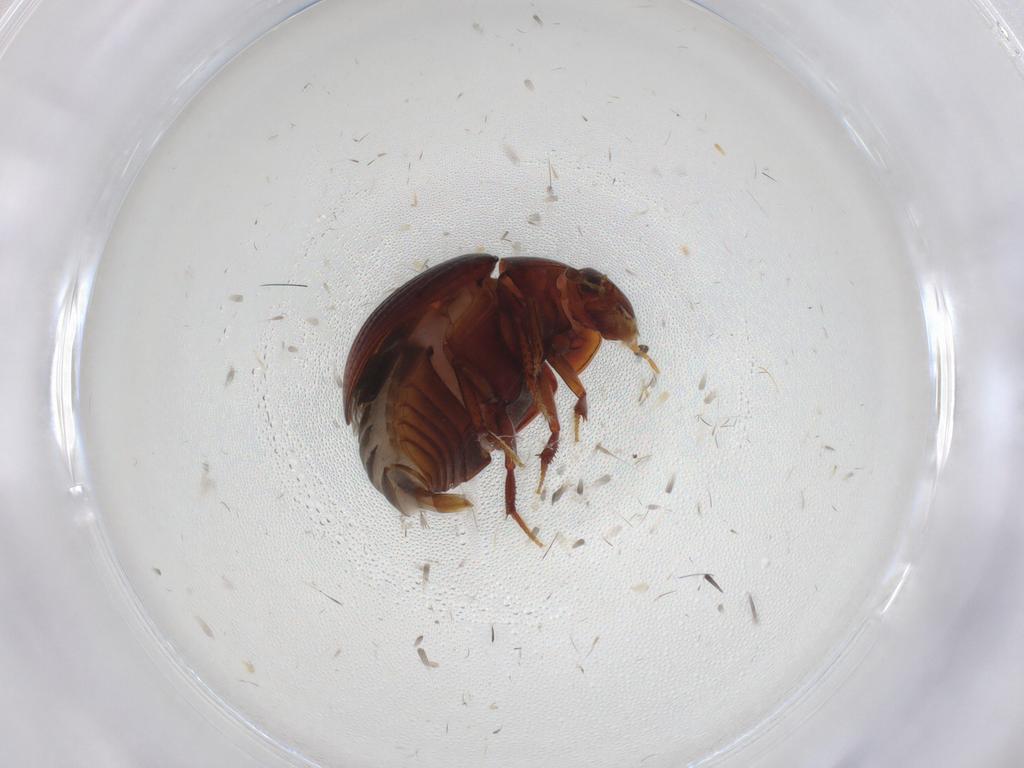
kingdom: Animalia
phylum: Arthropoda
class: Insecta
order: Coleoptera
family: Hydrophilidae
